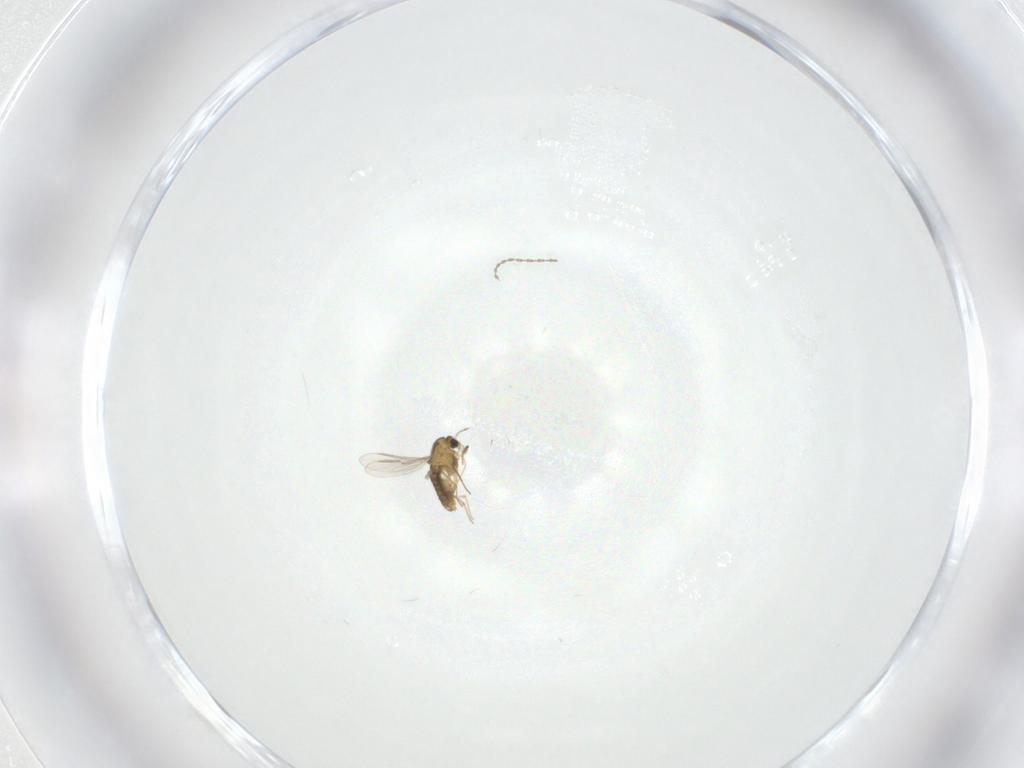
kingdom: Animalia
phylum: Arthropoda
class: Insecta
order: Diptera
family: Chironomidae
